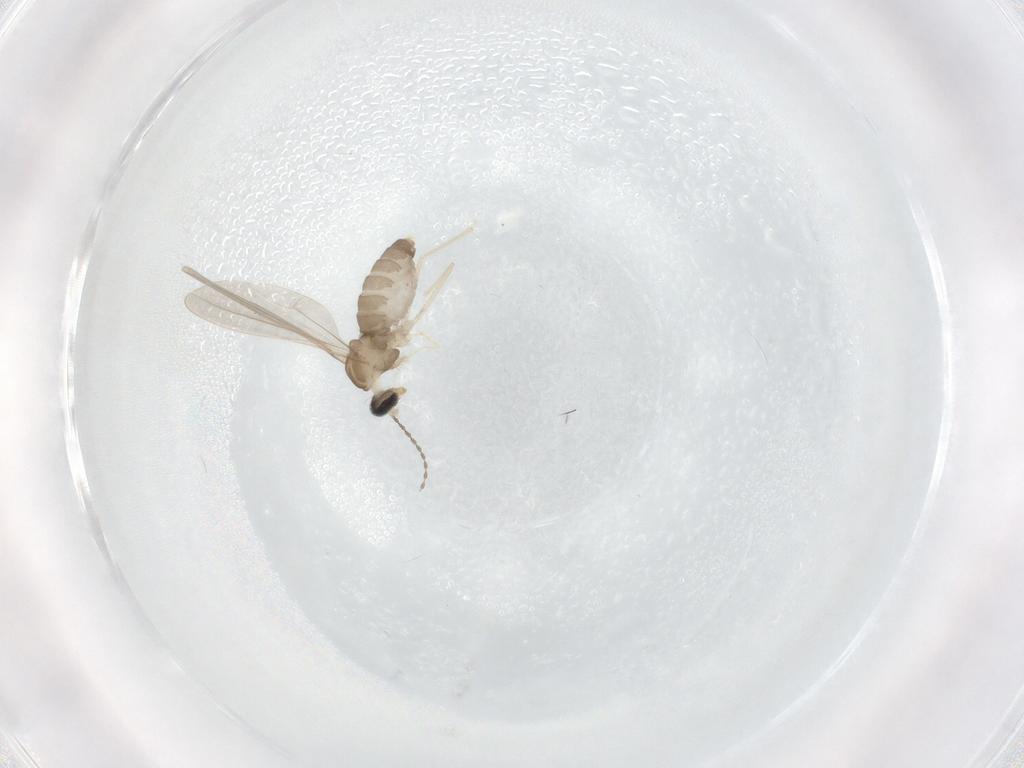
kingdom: Animalia
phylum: Arthropoda
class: Insecta
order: Diptera
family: Cecidomyiidae
